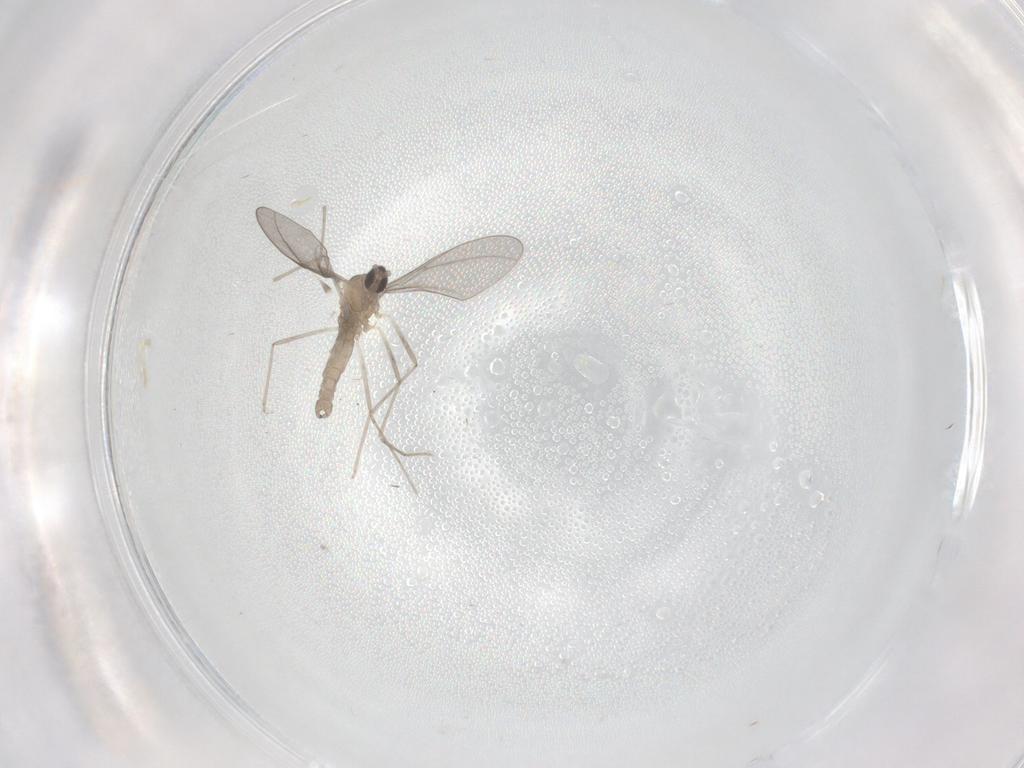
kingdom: Animalia
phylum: Arthropoda
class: Insecta
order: Diptera
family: Cecidomyiidae
